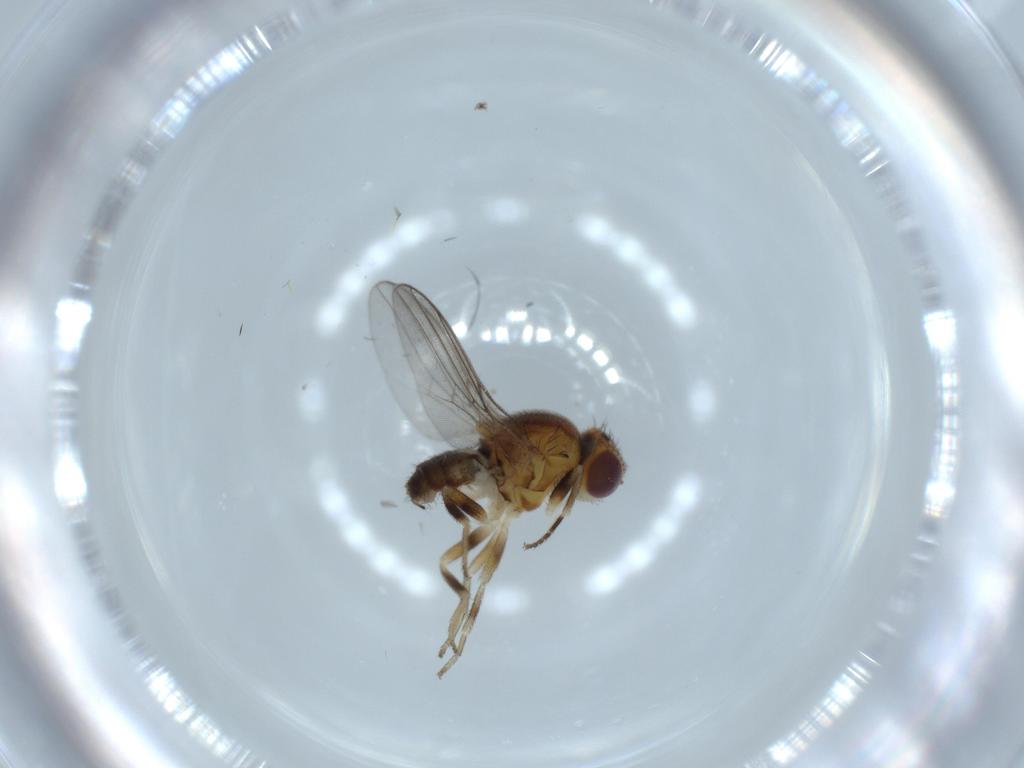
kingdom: Animalia
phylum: Arthropoda
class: Insecta
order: Diptera
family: Chloropidae
